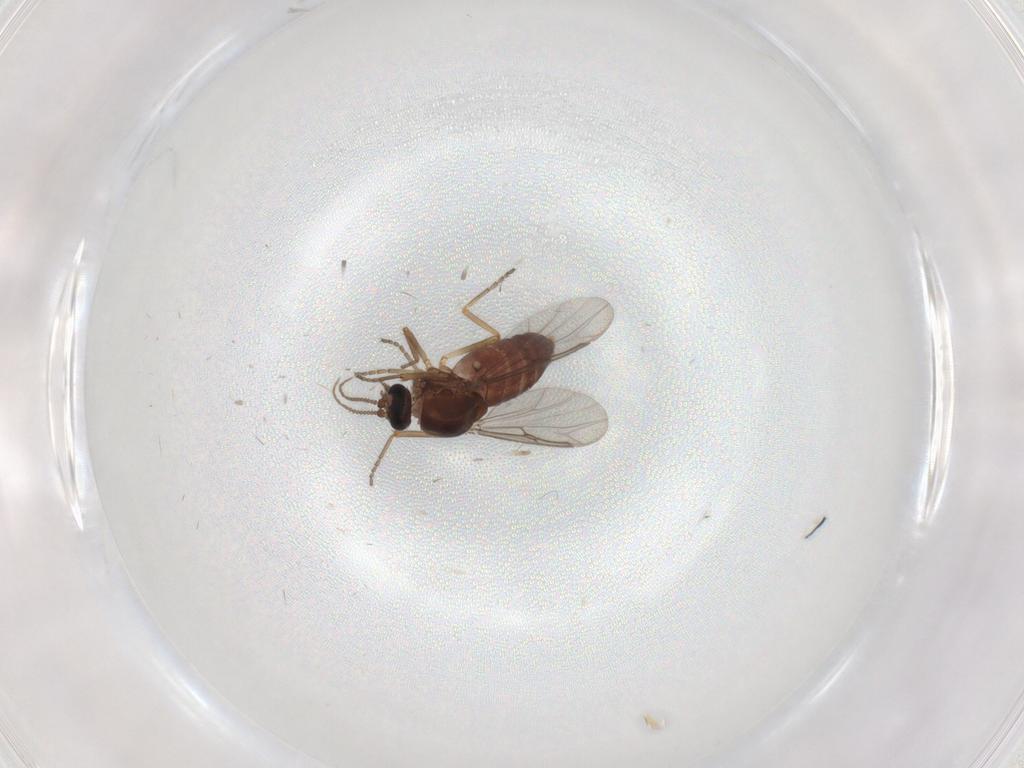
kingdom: Animalia
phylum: Arthropoda
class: Insecta
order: Diptera
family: Ceratopogonidae
